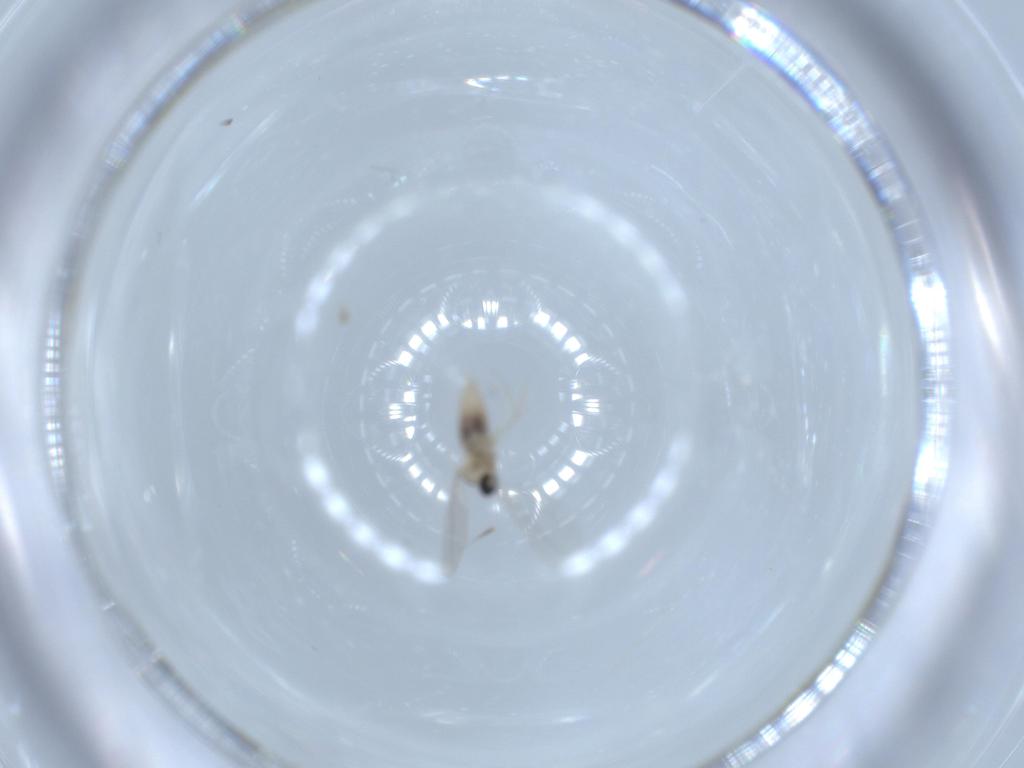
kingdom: Animalia
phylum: Arthropoda
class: Insecta
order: Diptera
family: Cecidomyiidae
